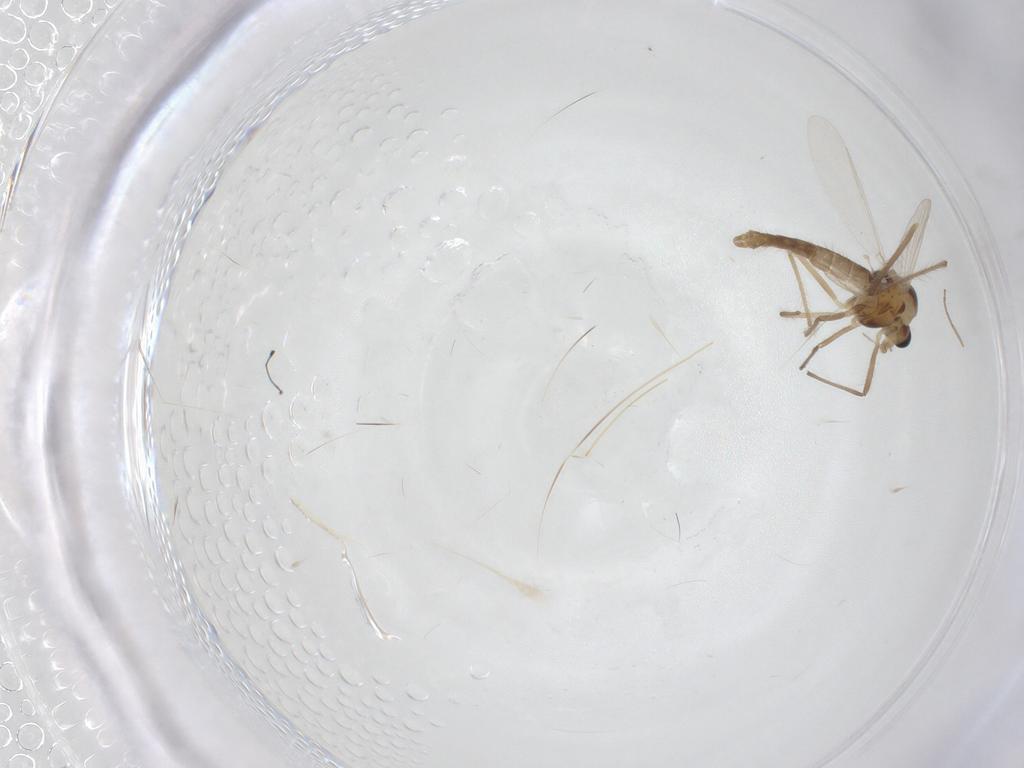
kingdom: Animalia
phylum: Arthropoda
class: Insecta
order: Diptera
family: Chironomidae
